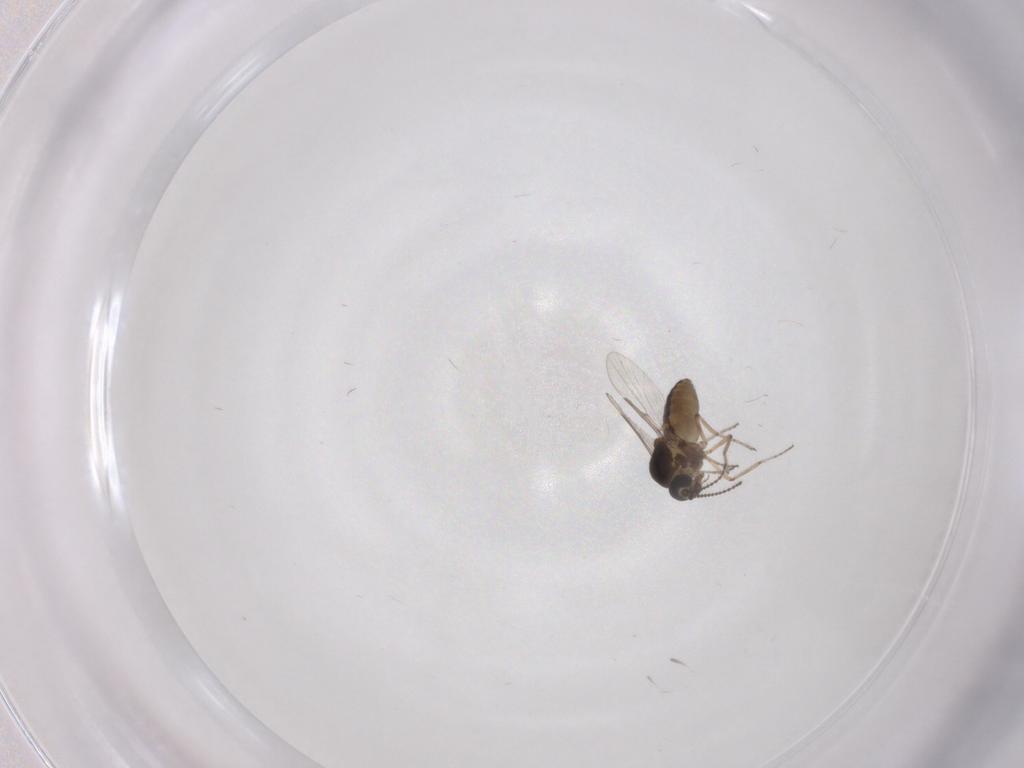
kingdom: Animalia
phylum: Arthropoda
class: Insecta
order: Diptera
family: Ceratopogonidae
